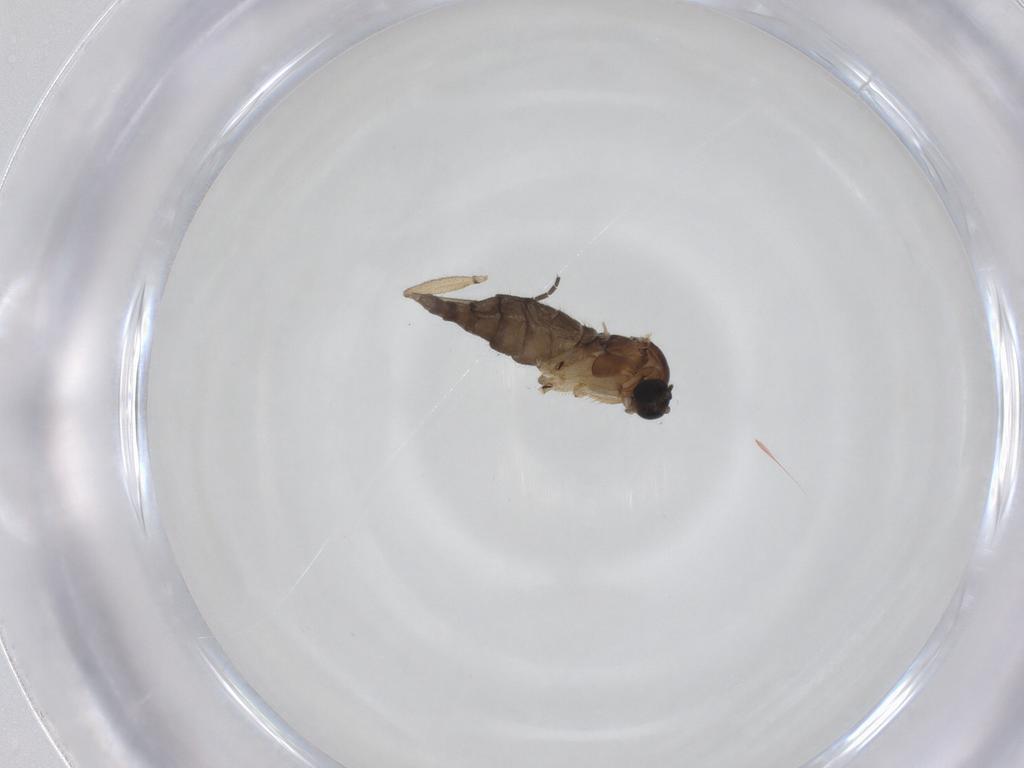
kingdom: Animalia
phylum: Arthropoda
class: Insecta
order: Diptera
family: Sciaridae
